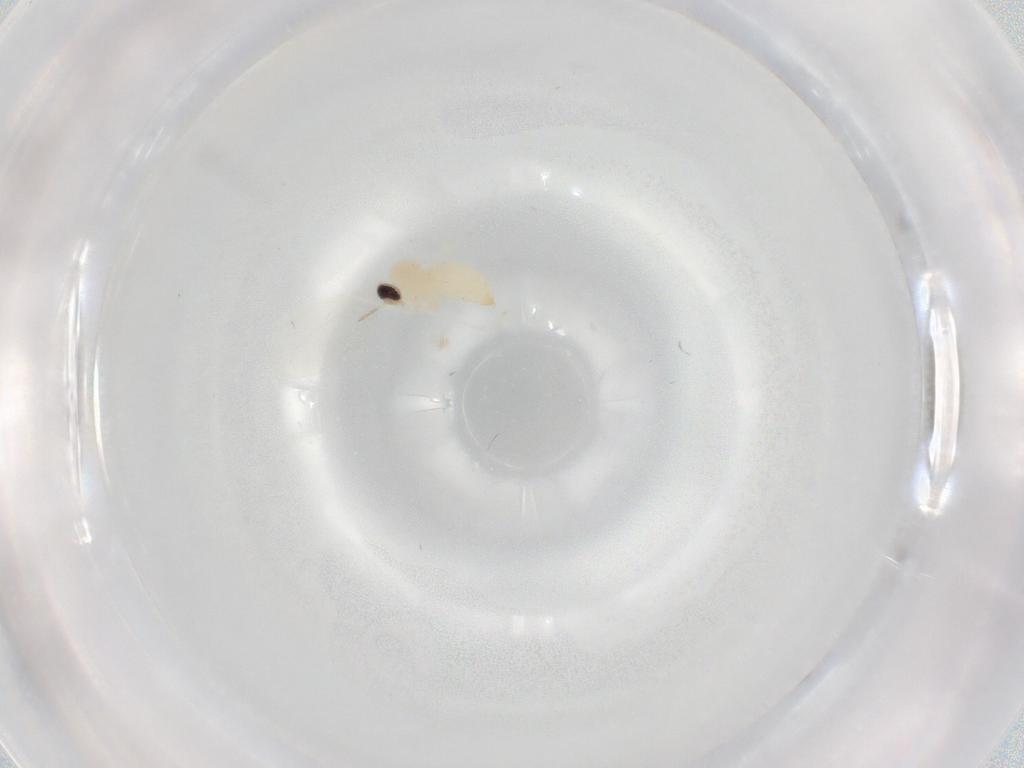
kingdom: Animalia
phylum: Arthropoda
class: Insecta
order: Diptera
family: Cecidomyiidae
